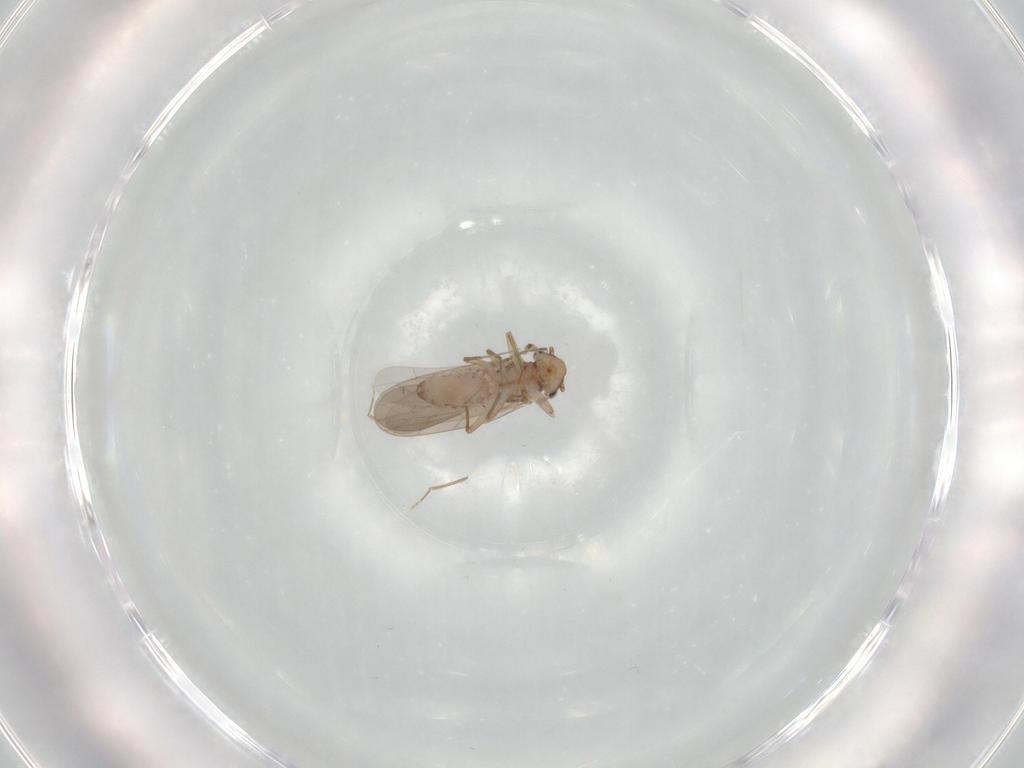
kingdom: Animalia
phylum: Arthropoda
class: Insecta
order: Psocodea
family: Lepidopsocidae
